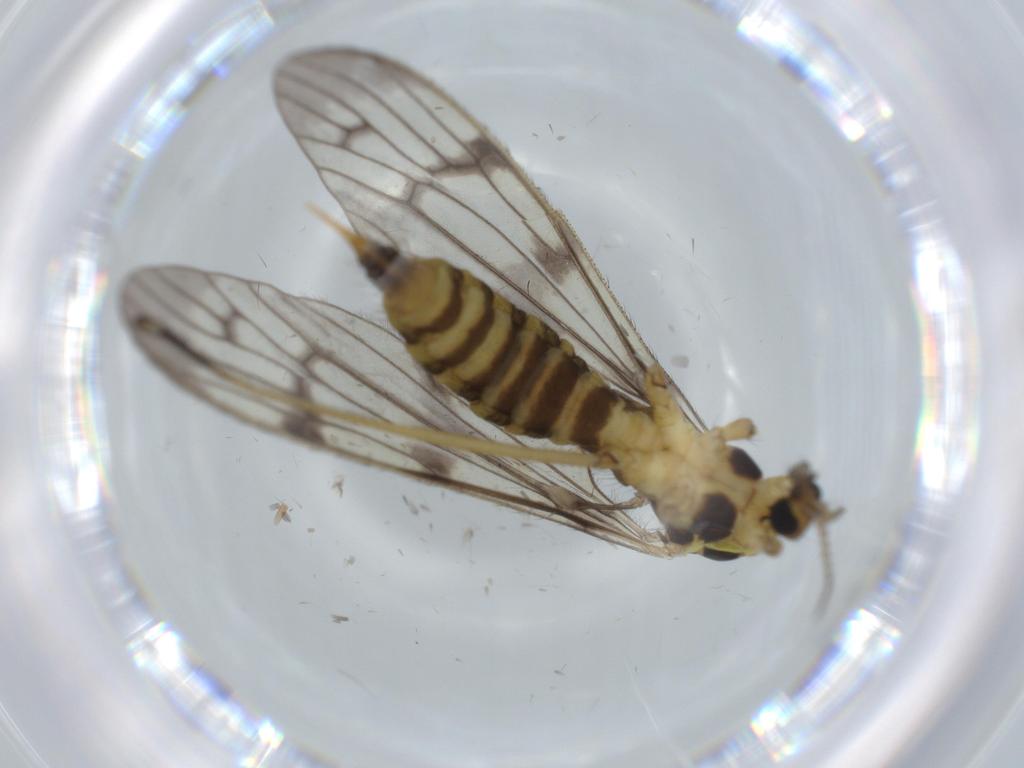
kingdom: Animalia
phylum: Arthropoda
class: Insecta
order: Diptera
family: Limoniidae
